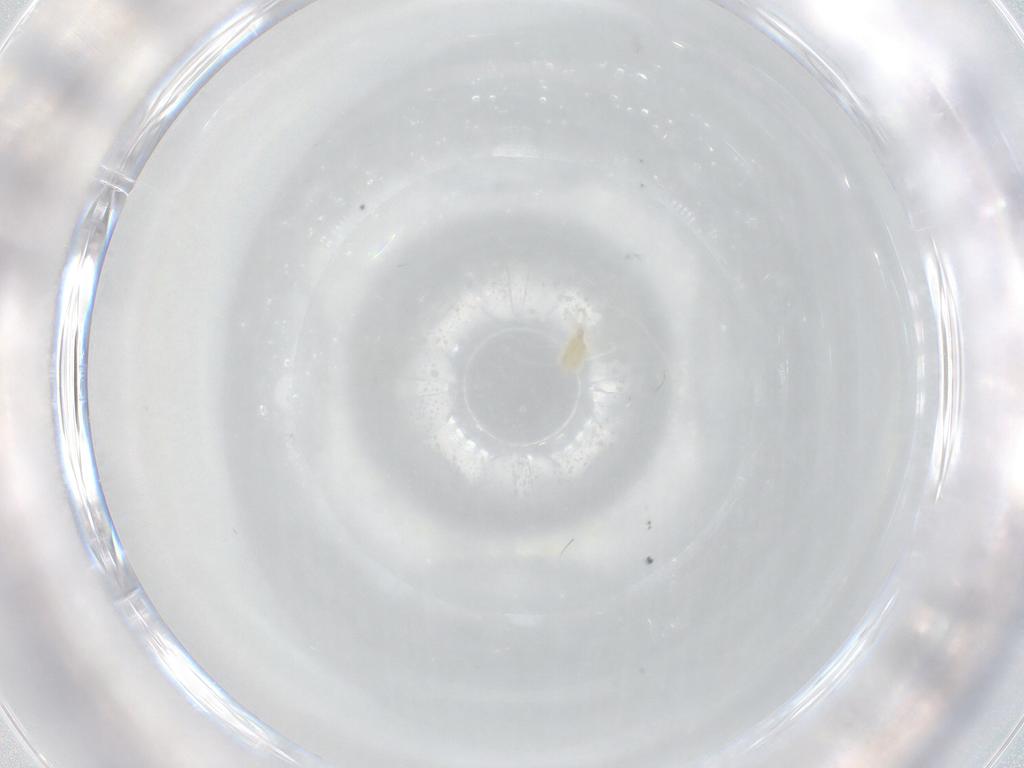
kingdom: Animalia
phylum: Arthropoda
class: Arachnida
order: Trombidiformes
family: Eupodidae
